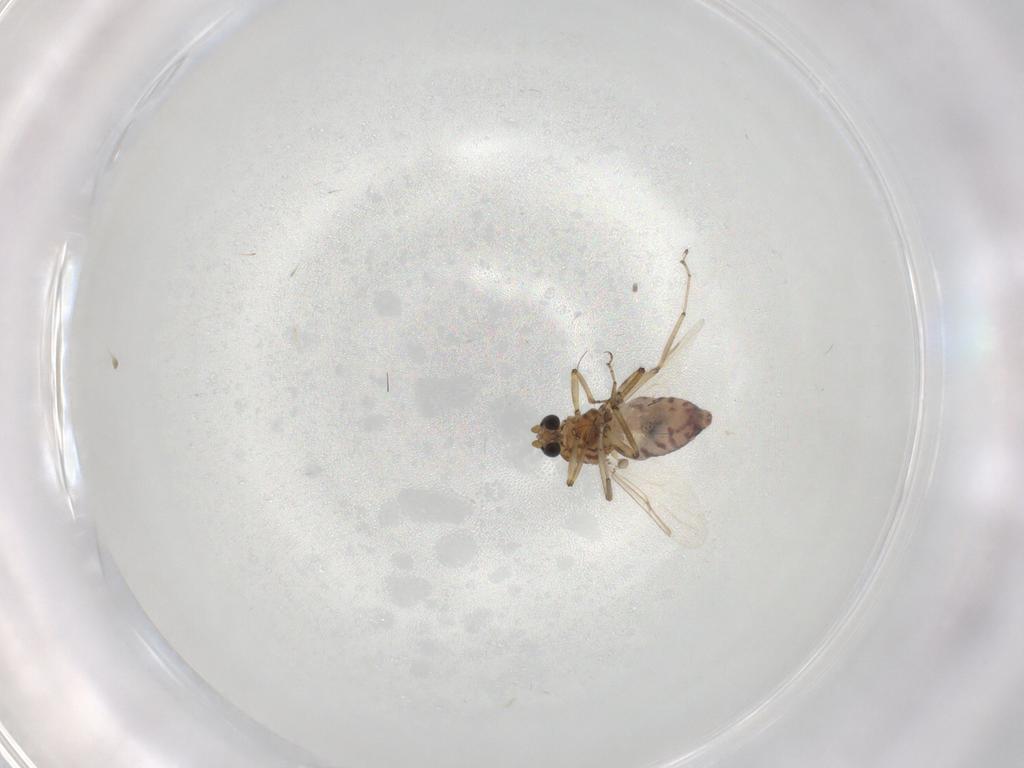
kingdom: Animalia
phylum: Arthropoda
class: Insecta
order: Diptera
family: Ceratopogonidae
